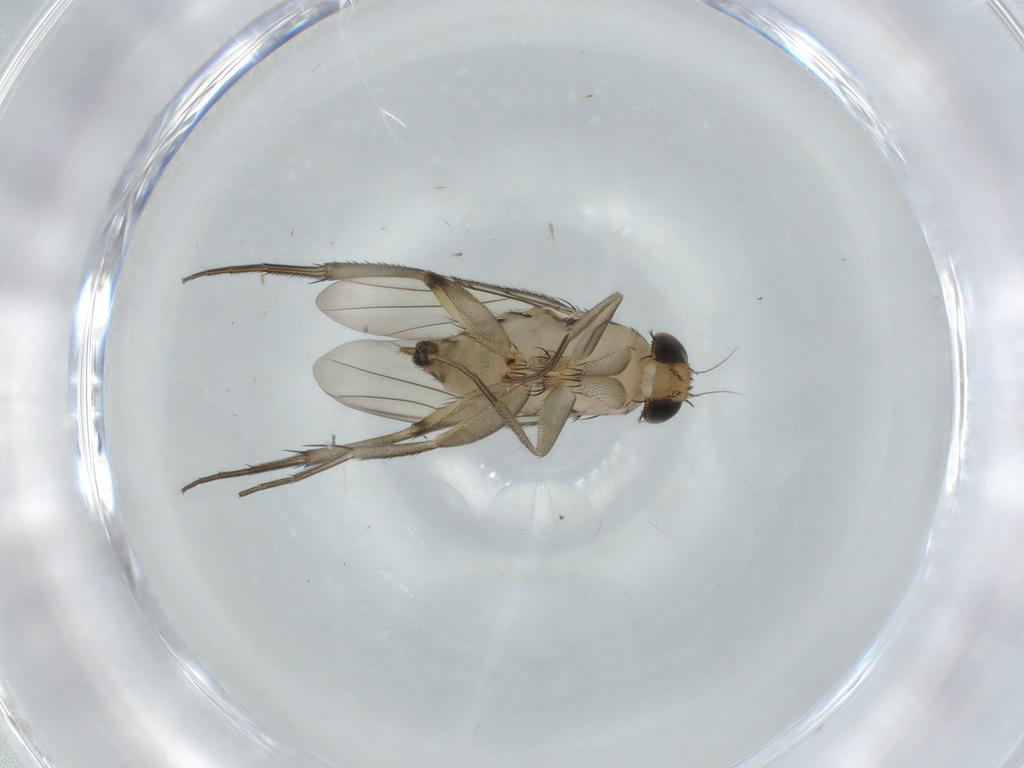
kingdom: Animalia
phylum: Arthropoda
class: Insecta
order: Diptera
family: Cecidomyiidae
